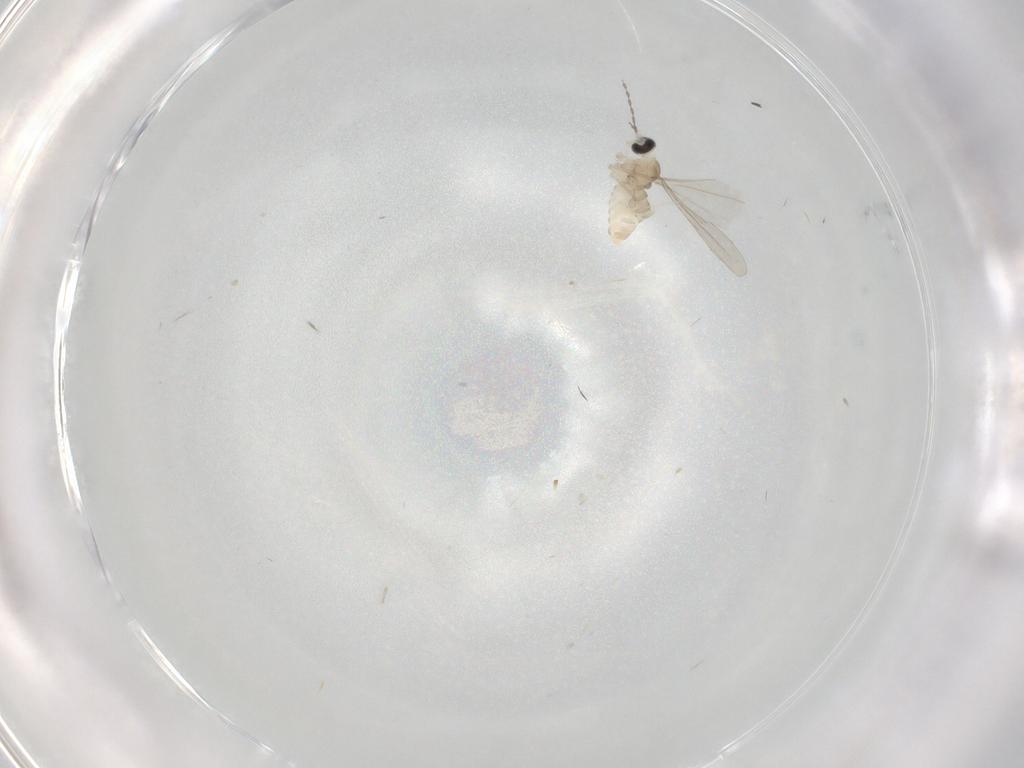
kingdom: Animalia
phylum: Arthropoda
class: Insecta
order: Diptera
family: Cecidomyiidae
